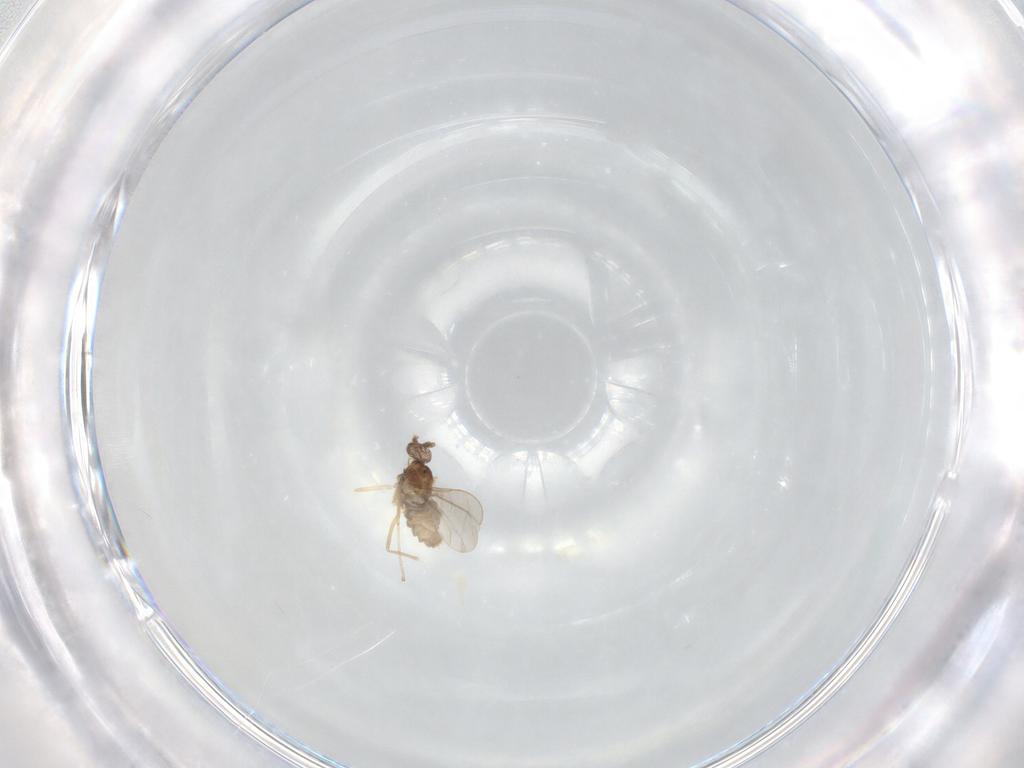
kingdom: Animalia
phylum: Arthropoda
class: Insecta
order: Diptera
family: Cecidomyiidae
